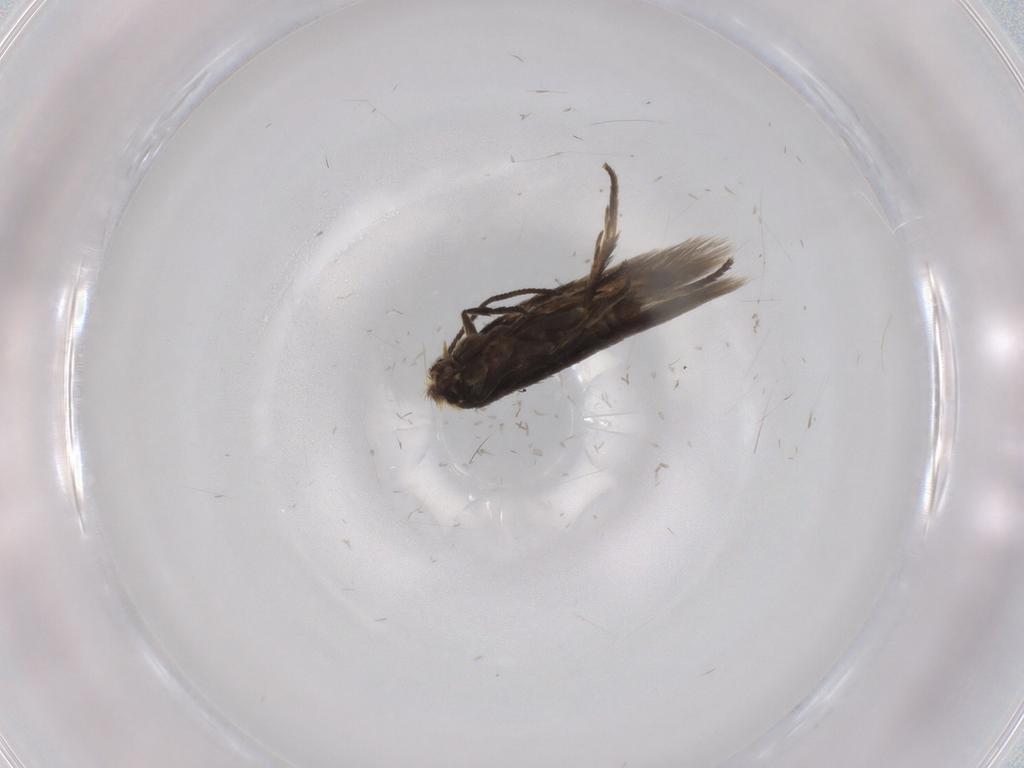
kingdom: Animalia
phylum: Arthropoda
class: Insecta
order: Lepidoptera
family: Nepticulidae
